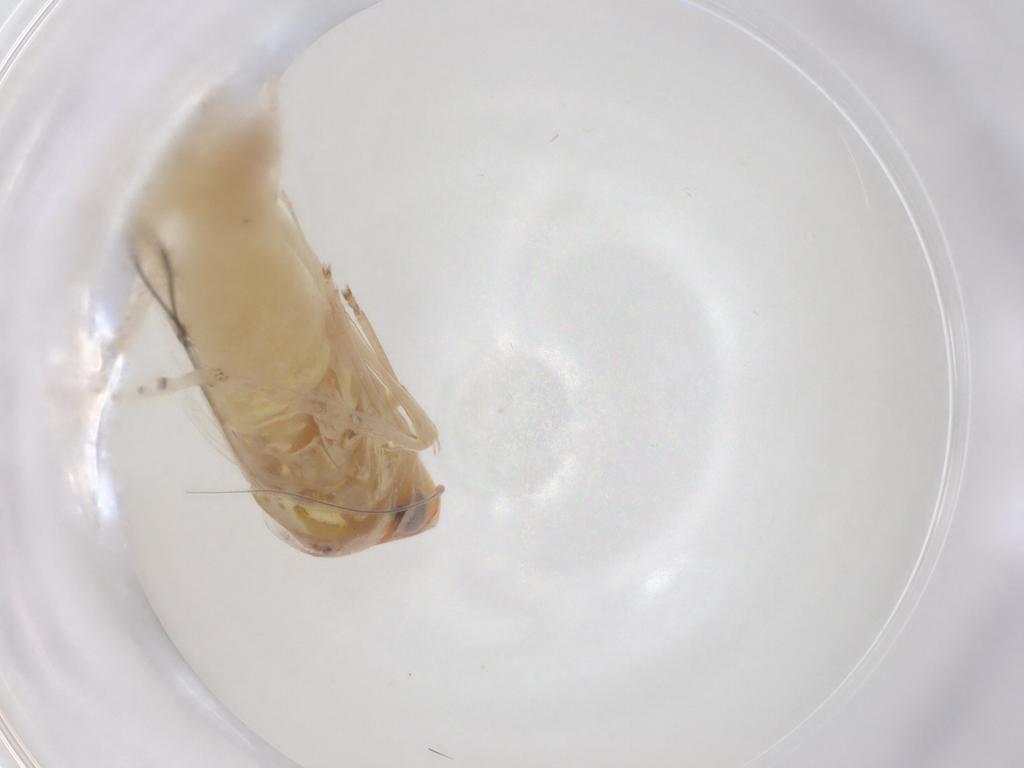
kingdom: Animalia
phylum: Arthropoda
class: Insecta
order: Hemiptera
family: Cicadellidae
